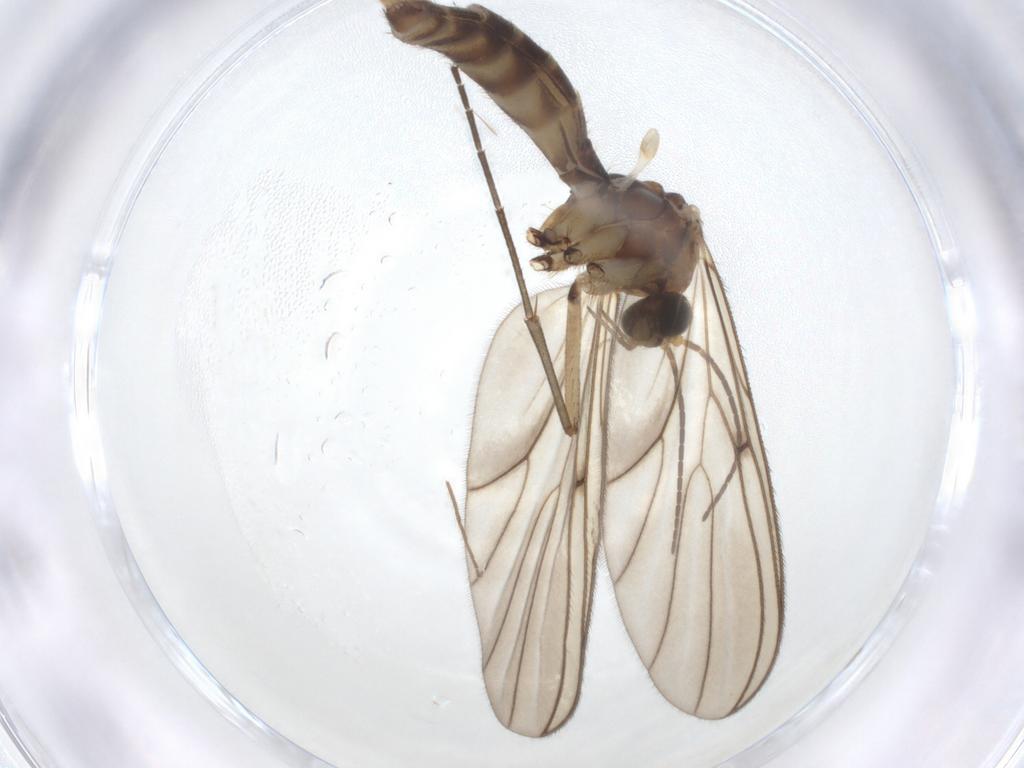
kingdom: Animalia
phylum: Arthropoda
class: Insecta
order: Diptera
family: Mycetophilidae
